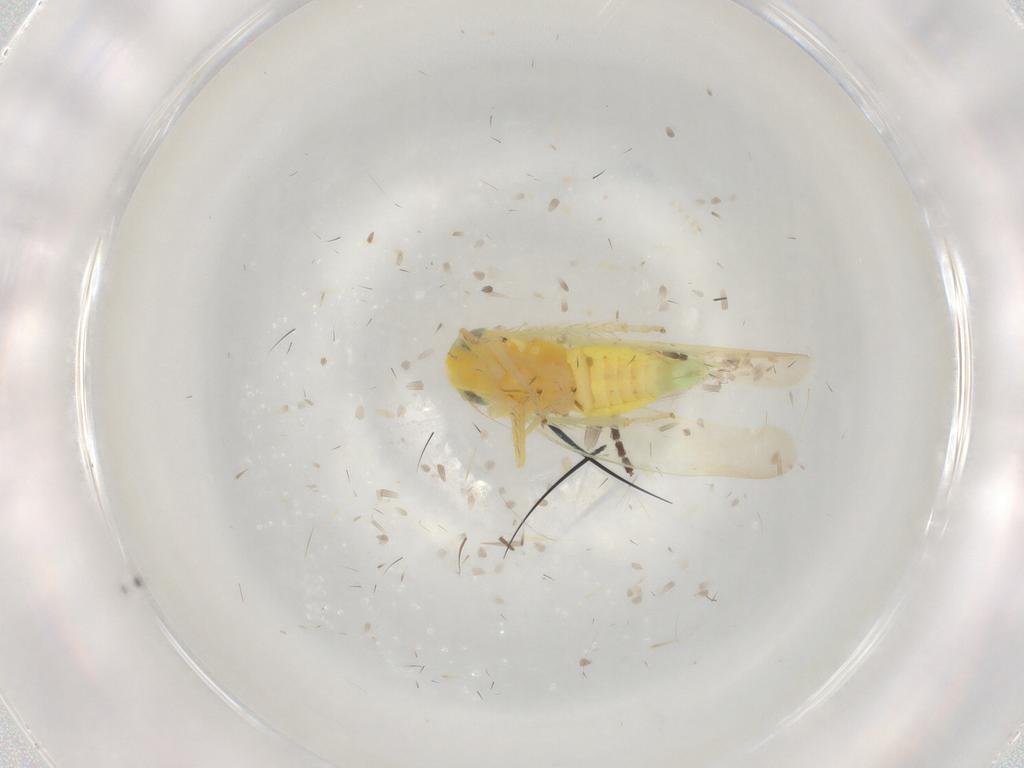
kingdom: Animalia
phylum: Arthropoda
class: Insecta
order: Hemiptera
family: Cicadellidae
